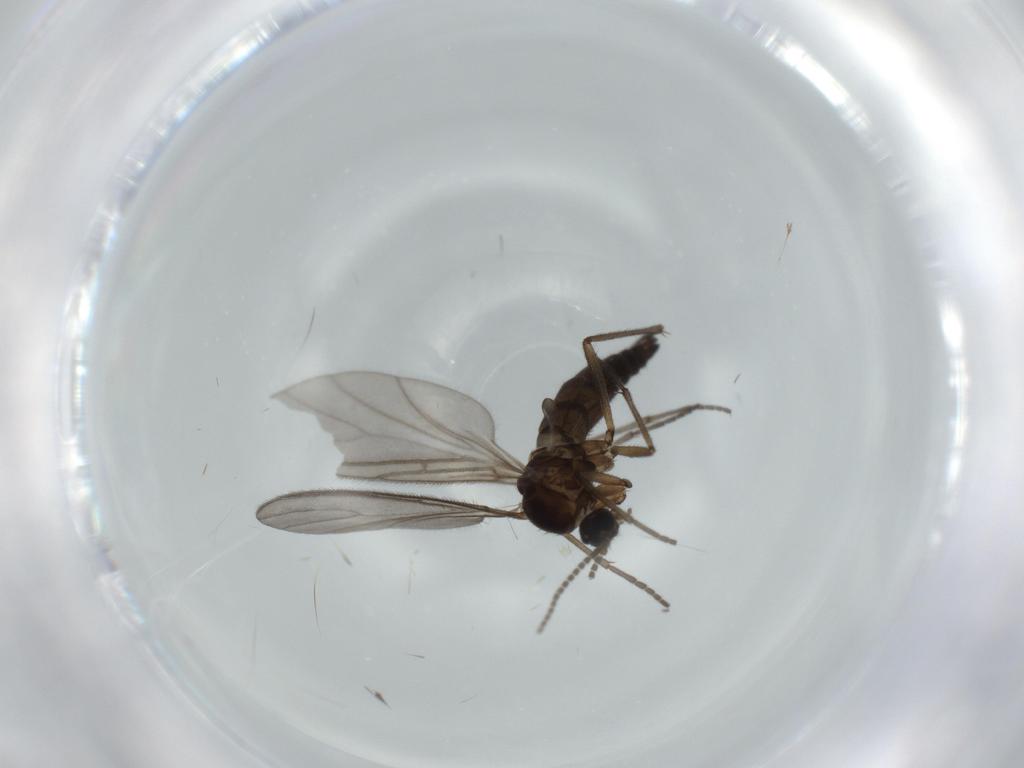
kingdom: Animalia
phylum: Arthropoda
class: Insecta
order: Diptera
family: Sciaridae
